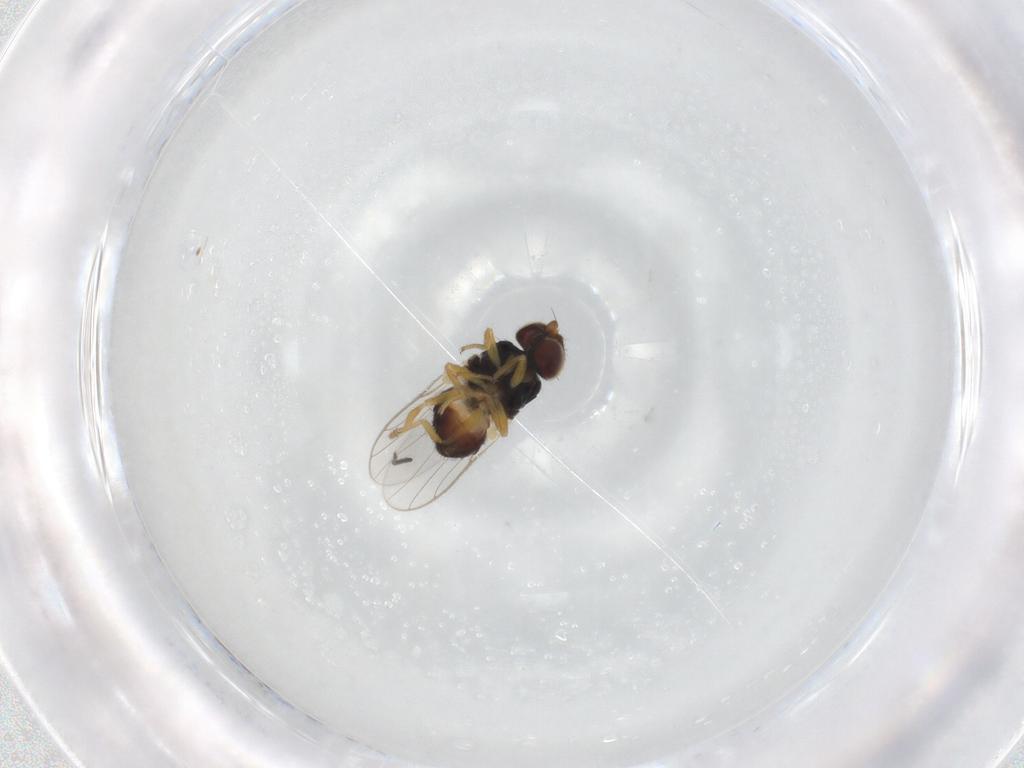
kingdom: Animalia
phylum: Arthropoda
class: Insecta
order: Diptera
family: Chloropidae
